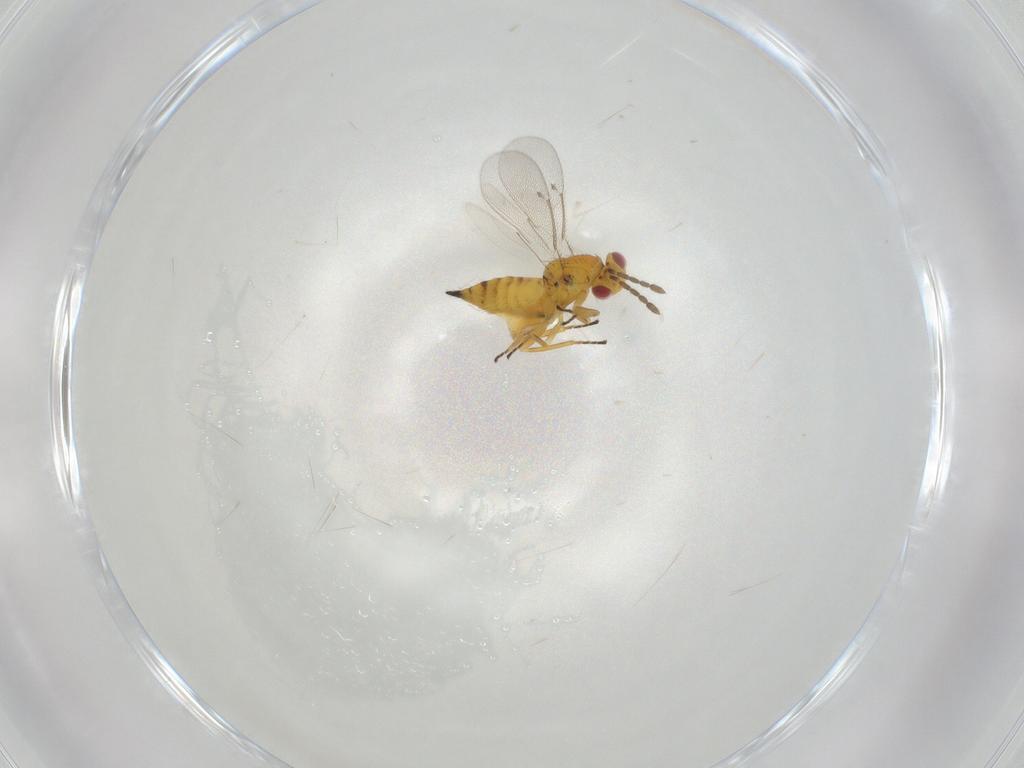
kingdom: Animalia
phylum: Arthropoda
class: Insecta
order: Hymenoptera
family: Eulophidae
